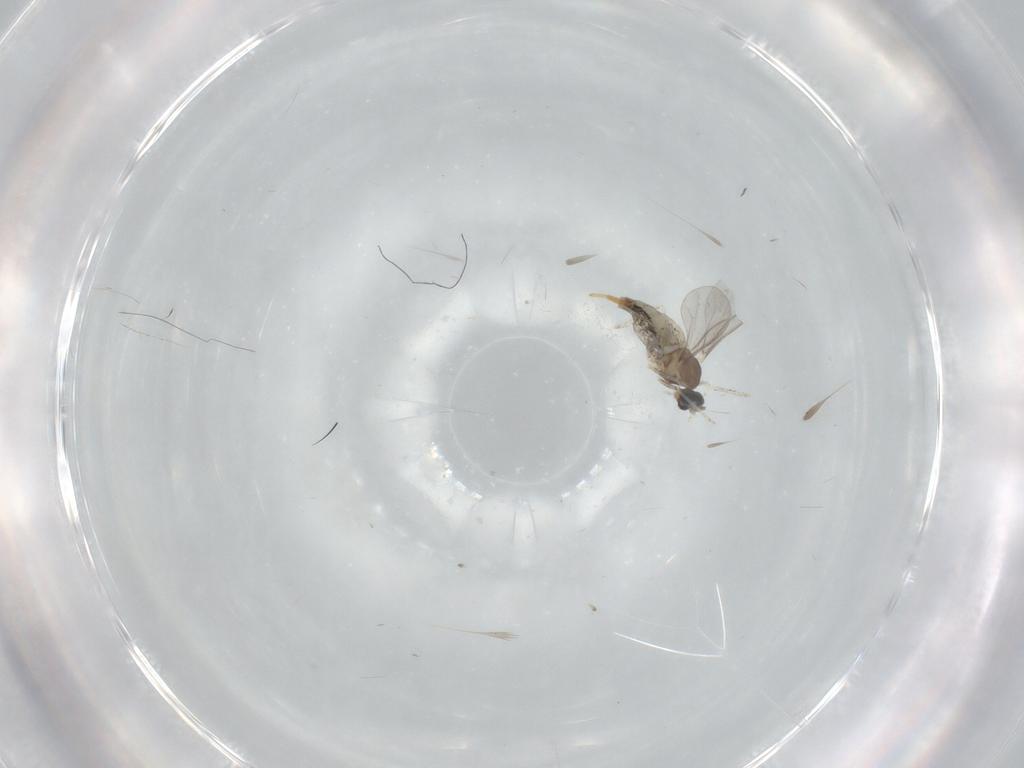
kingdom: Animalia
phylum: Arthropoda
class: Insecta
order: Diptera
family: Cecidomyiidae
